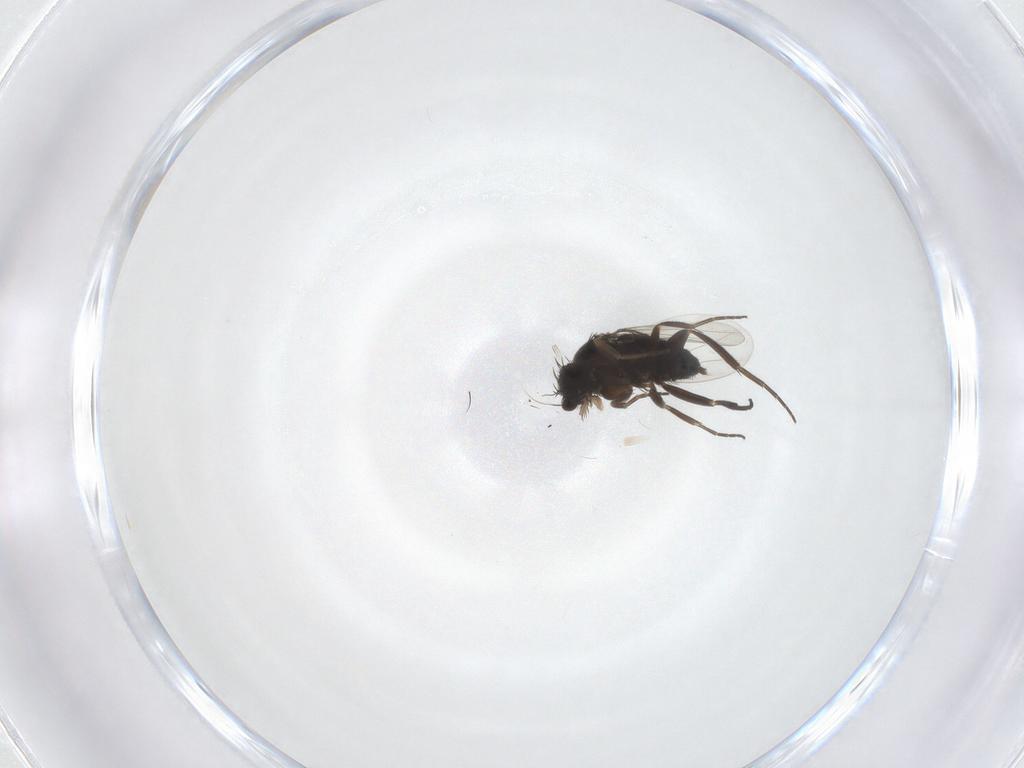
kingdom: Animalia
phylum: Arthropoda
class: Insecta
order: Diptera
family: Phoridae
